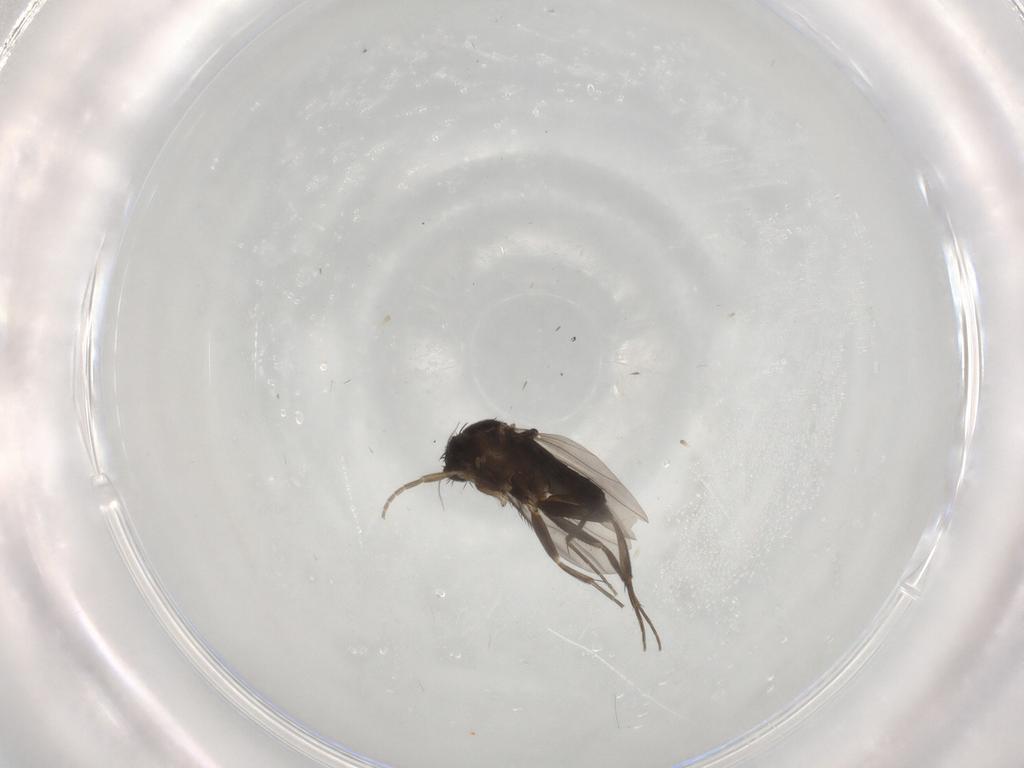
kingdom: Animalia
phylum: Arthropoda
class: Insecta
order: Diptera
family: Phoridae
